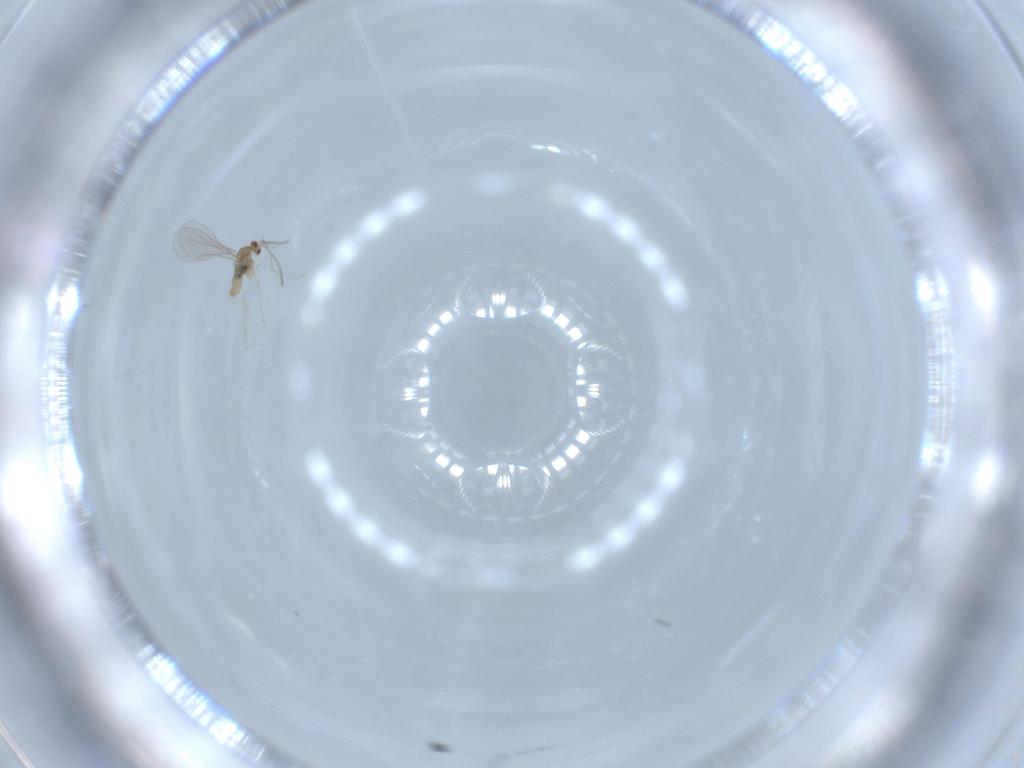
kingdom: Animalia
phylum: Arthropoda
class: Insecta
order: Diptera
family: Cecidomyiidae
